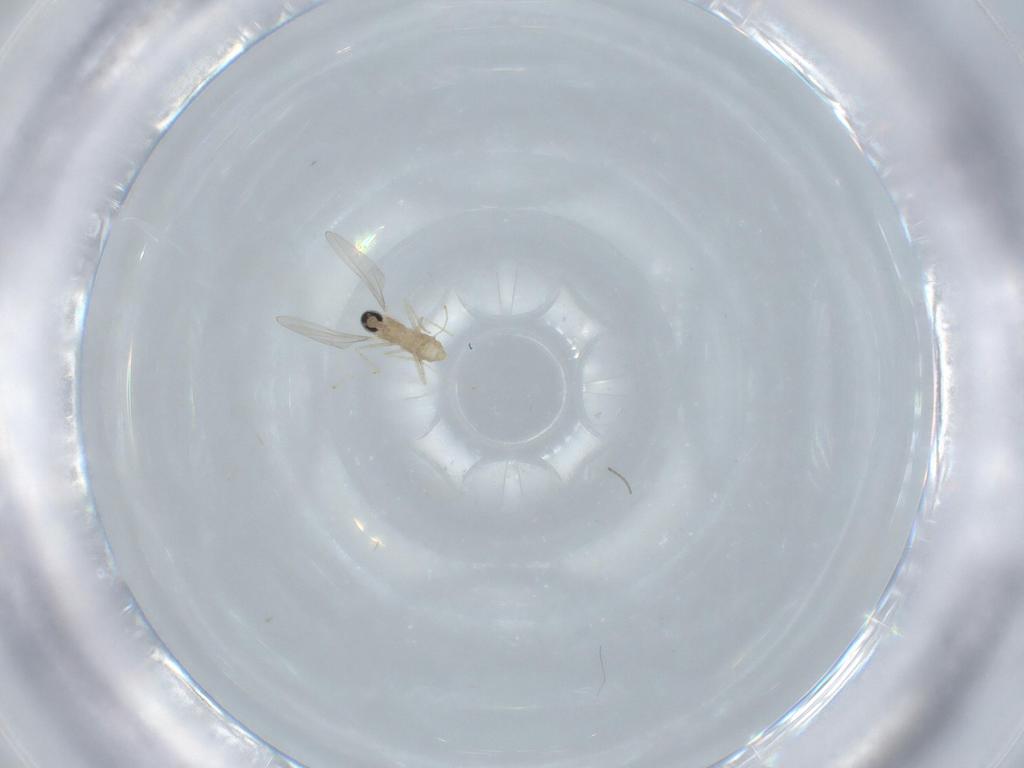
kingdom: Animalia
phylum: Arthropoda
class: Insecta
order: Diptera
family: Cecidomyiidae
